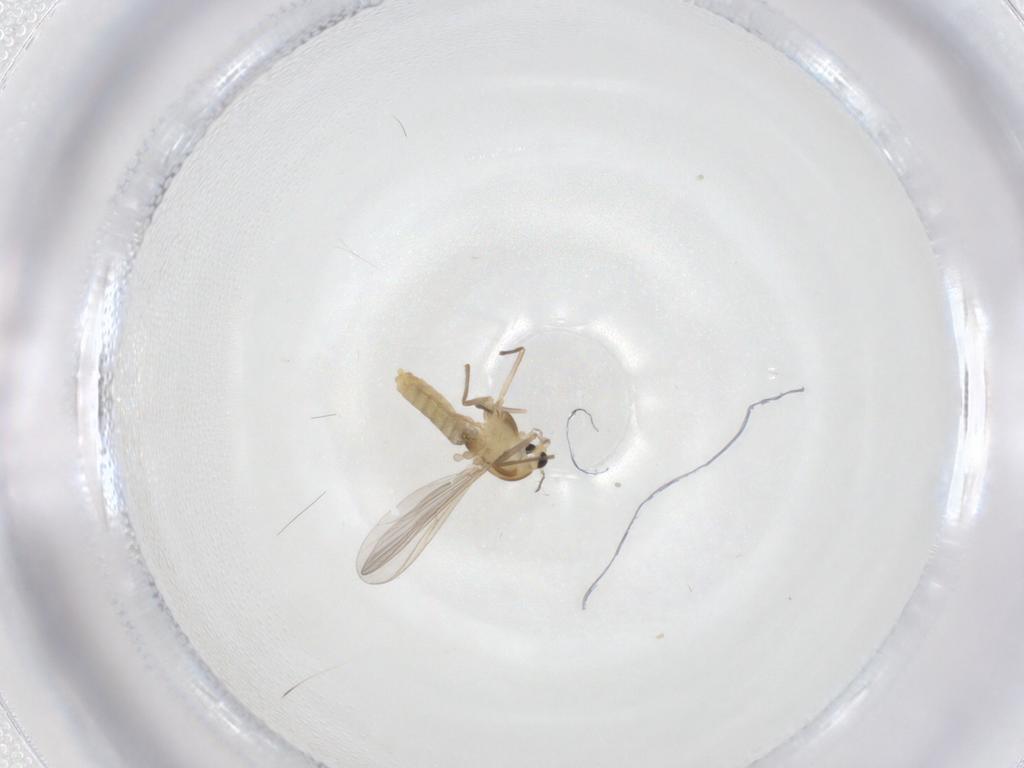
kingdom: Animalia
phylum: Arthropoda
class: Insecta
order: Diptera
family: Chironomidae
